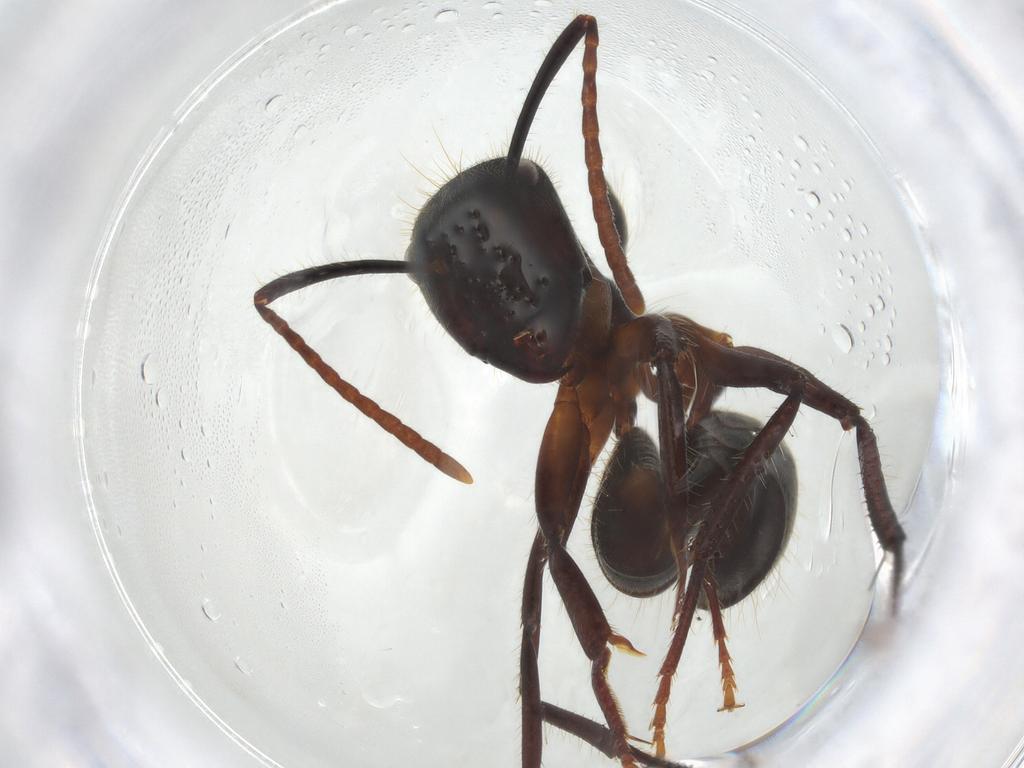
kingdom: Animalia
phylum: Arthropoda
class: Insecta
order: Hymenoptera
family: Formicidae
